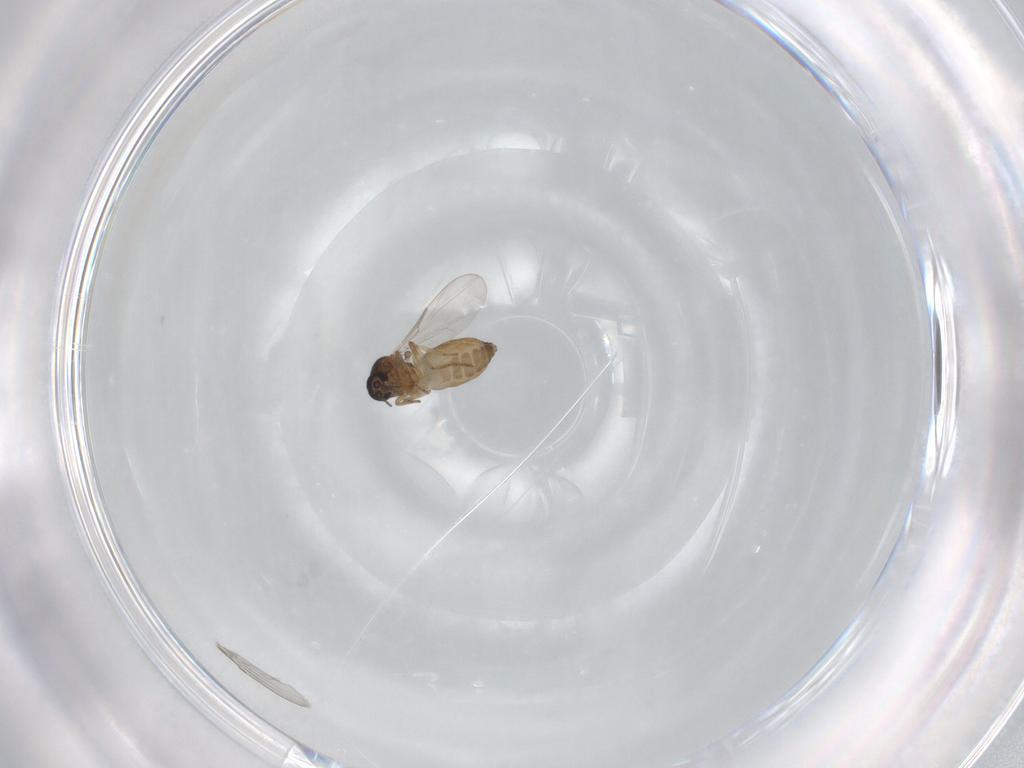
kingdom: Animalia
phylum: Arthropoda
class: Insecta
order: Diptera
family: Ceratopogonidae
